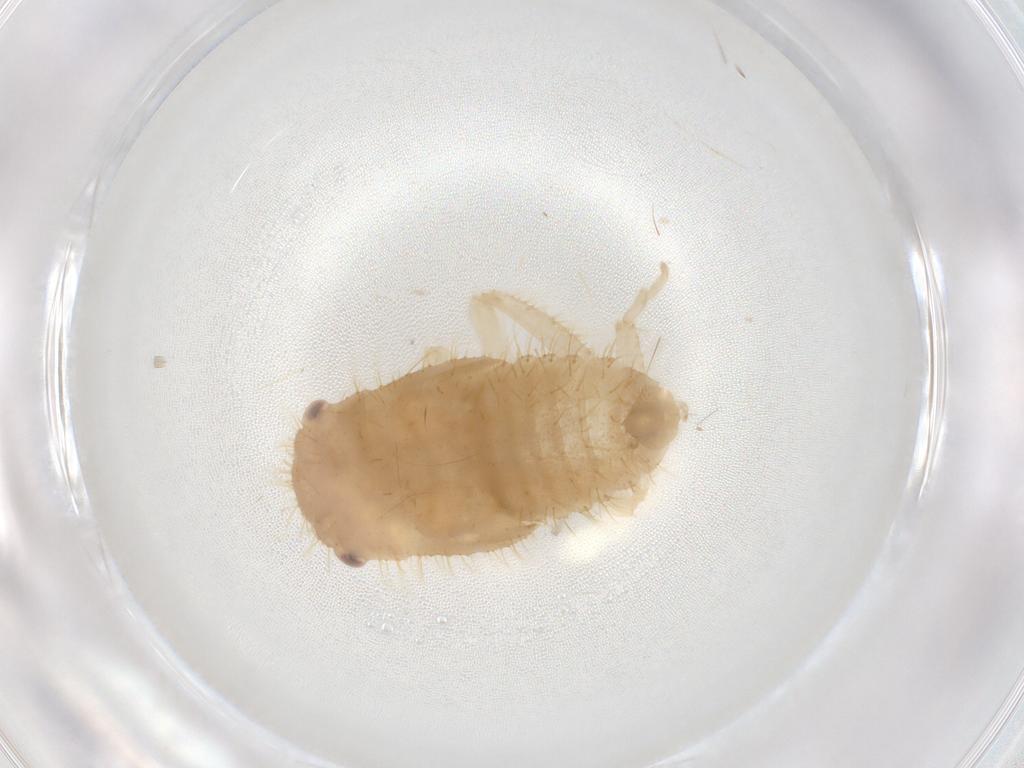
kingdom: Animalia
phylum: Arthropoda
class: Insecta
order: Hemiptera
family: Cicadellidae
